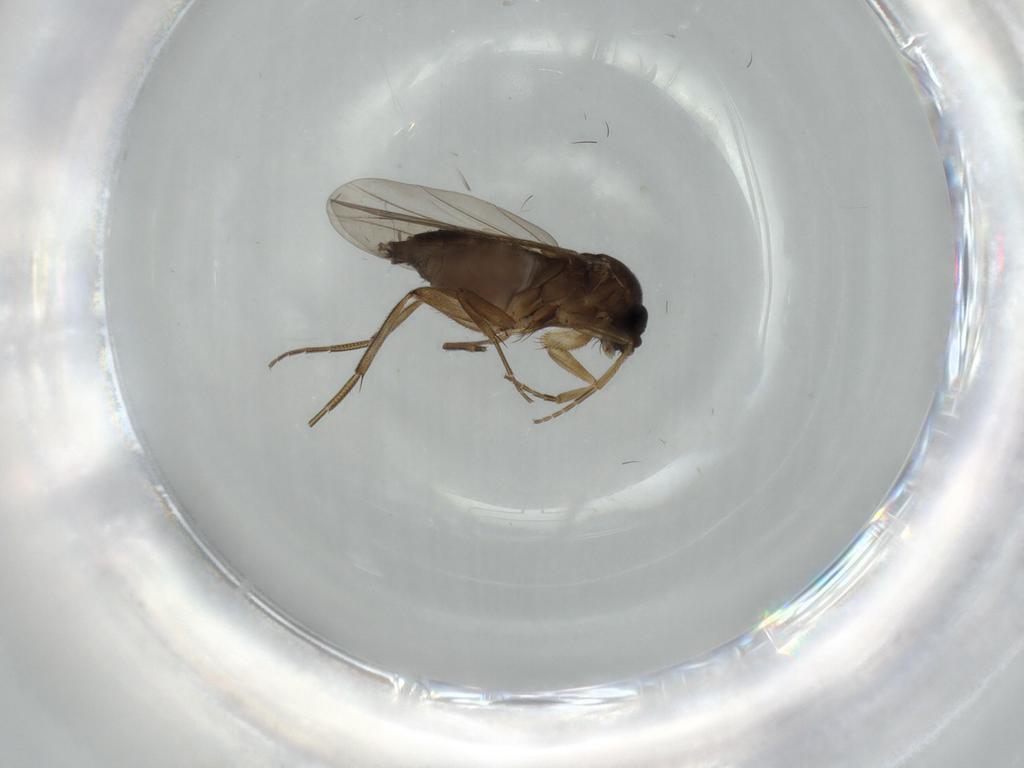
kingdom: Animalia
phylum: Arthropoda
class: Insecta
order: Diptera
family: Phoridae
